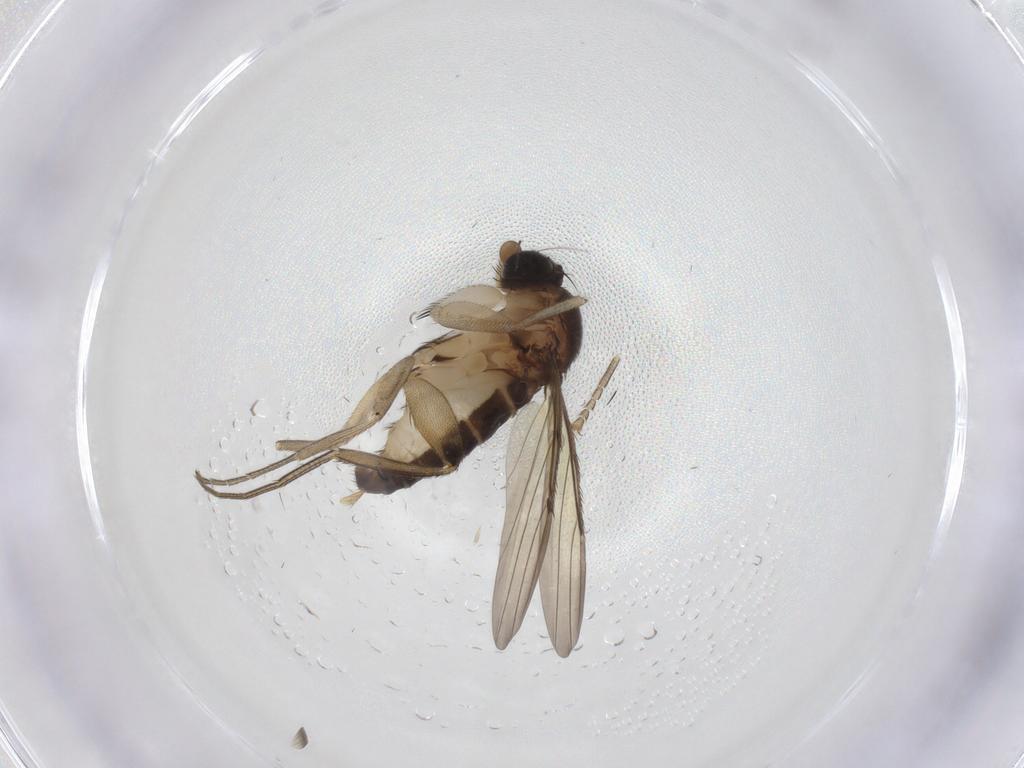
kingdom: Animalia
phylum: Arthropoda
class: Insecta
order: Diptera
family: Phoridae
